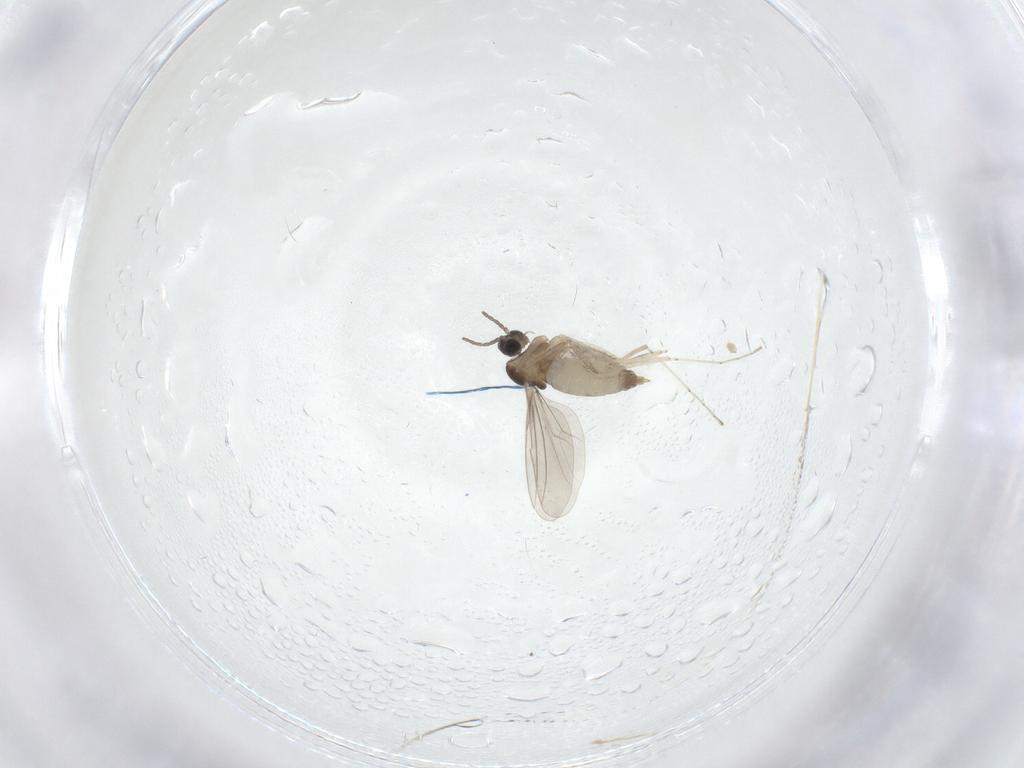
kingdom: Animalia
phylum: Arthropoda
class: Insecta
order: Diptera
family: Cecidomyiidae
